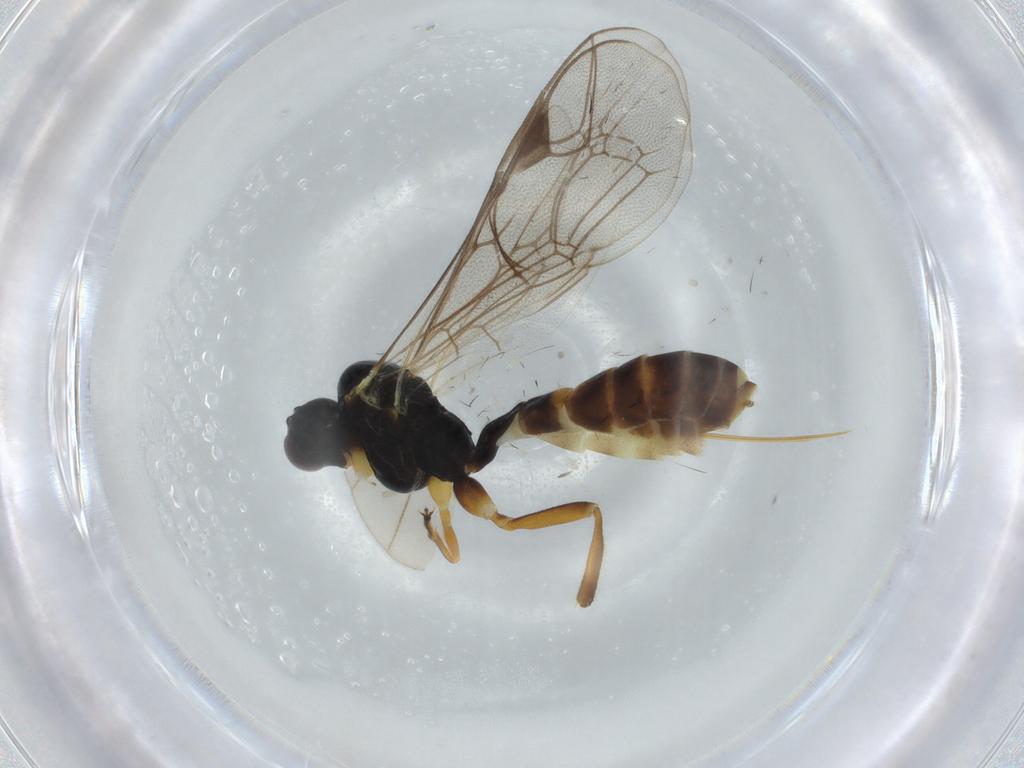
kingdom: Animalia
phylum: Arthropoda
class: Insecta
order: Hymenoptera
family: Ichneumonidae
